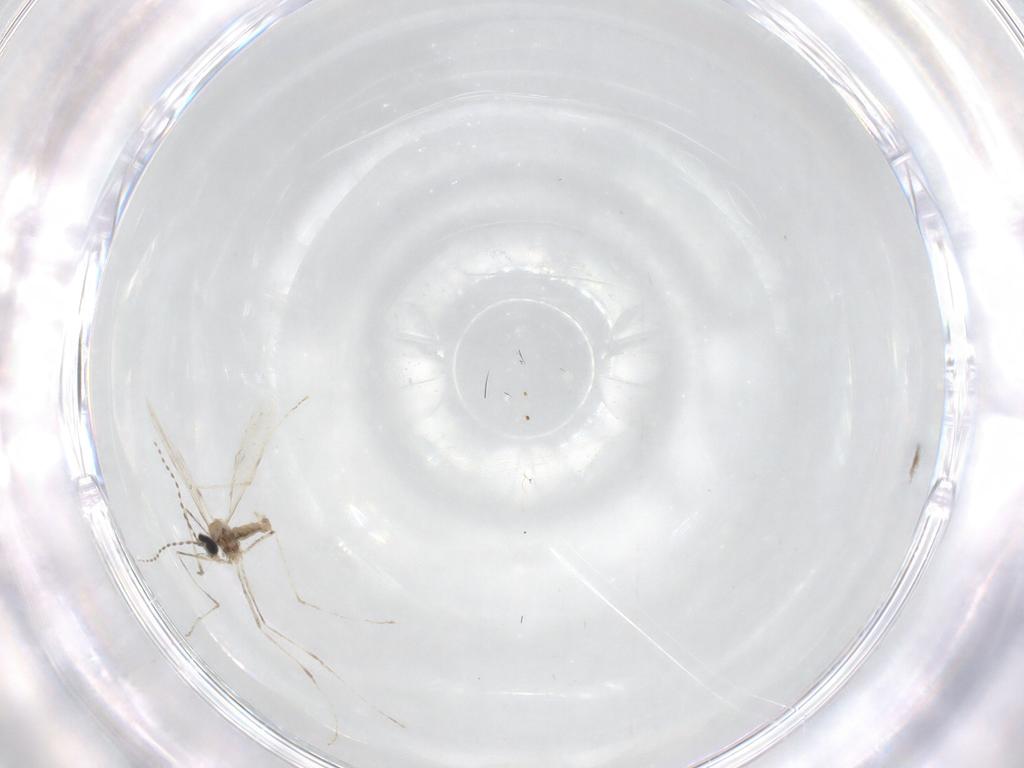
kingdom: Animalia
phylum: Arthropoda
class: Insecta
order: Diptera
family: Cecidomyiidae
